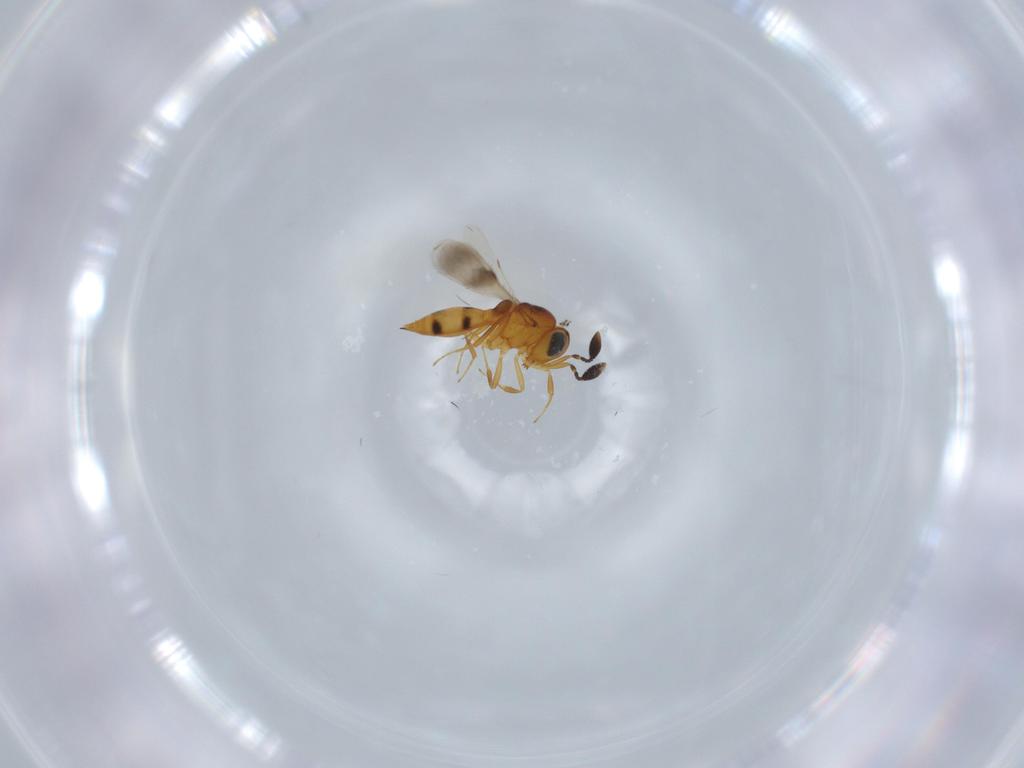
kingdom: Animalia
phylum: Arthropoda
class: Insecta
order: Hymenoptera
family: Scelionidae
